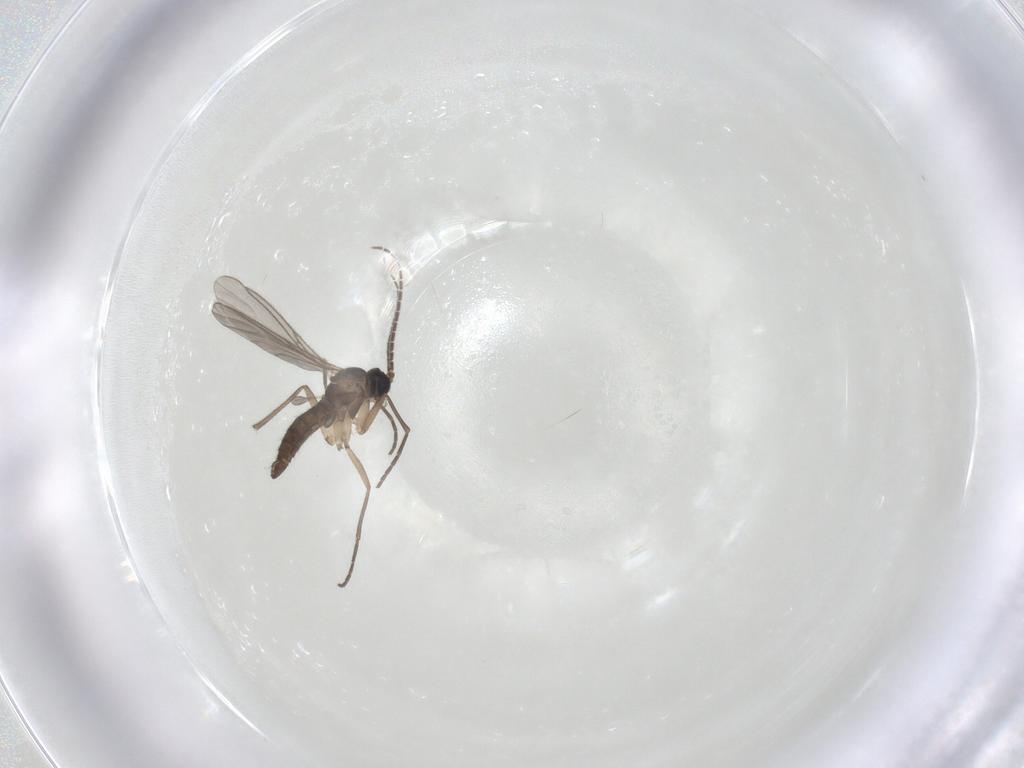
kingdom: Animalia
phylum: Arthropoda
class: Insecta
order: Diptera
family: Sciaridae
